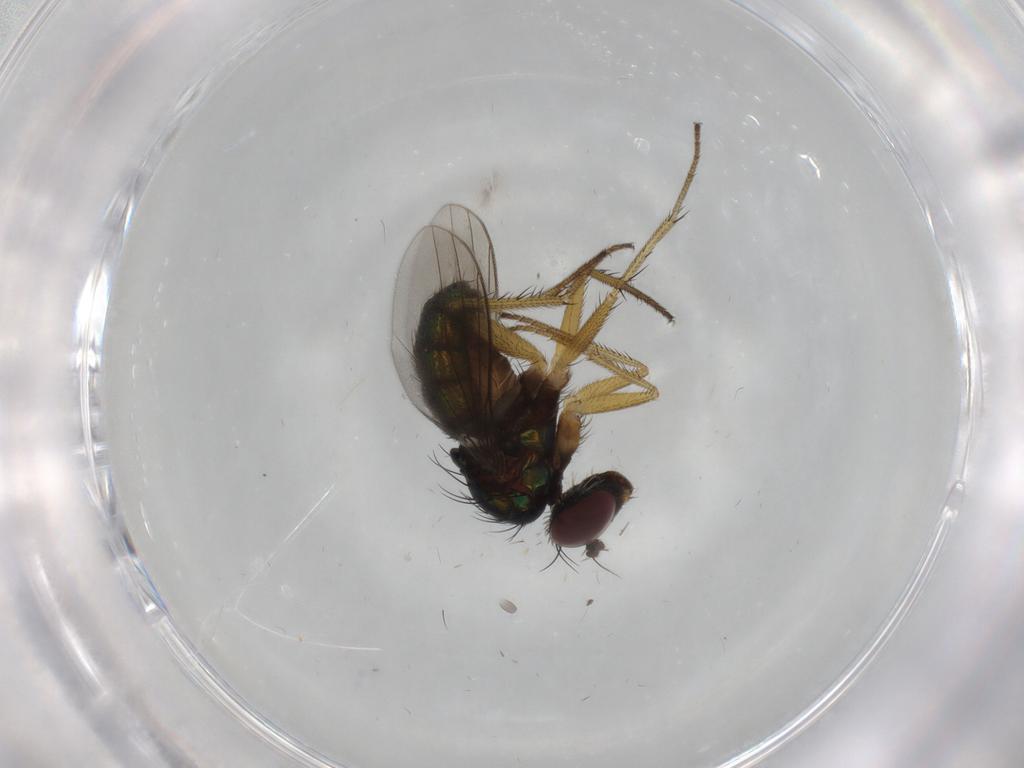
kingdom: Animalia
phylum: Arthropoda
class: Insecta
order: Diptera
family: Dolichopodidae
